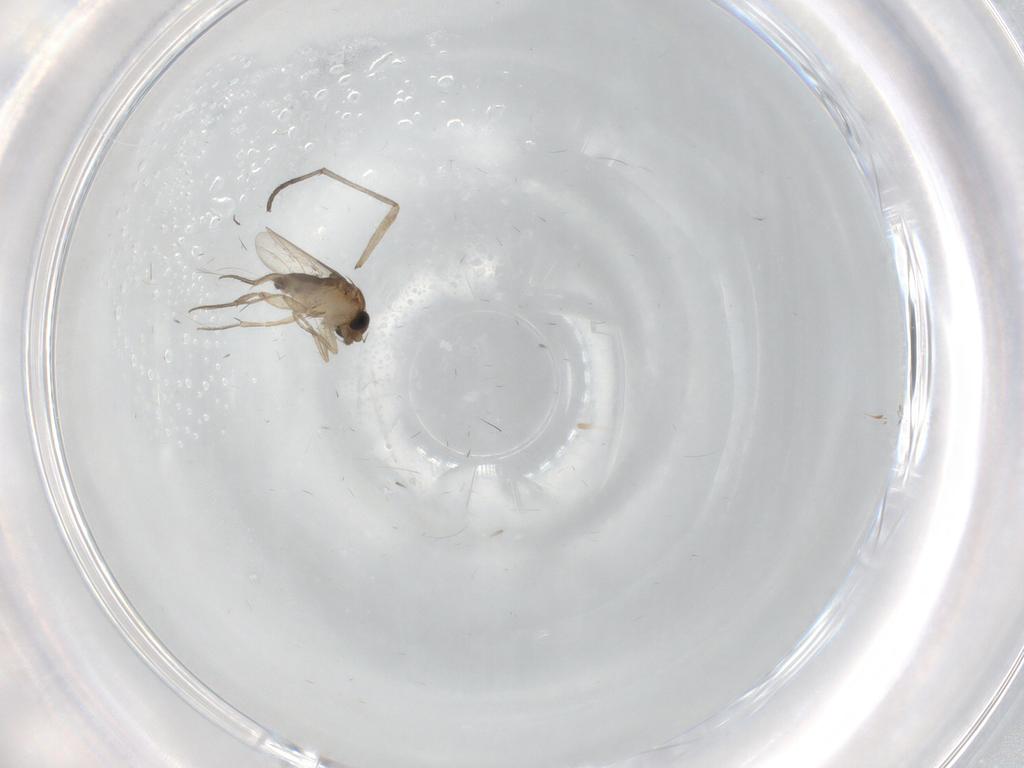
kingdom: Animalia
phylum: Arthropoda
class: Insecta
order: Diptera
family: Phoridae
